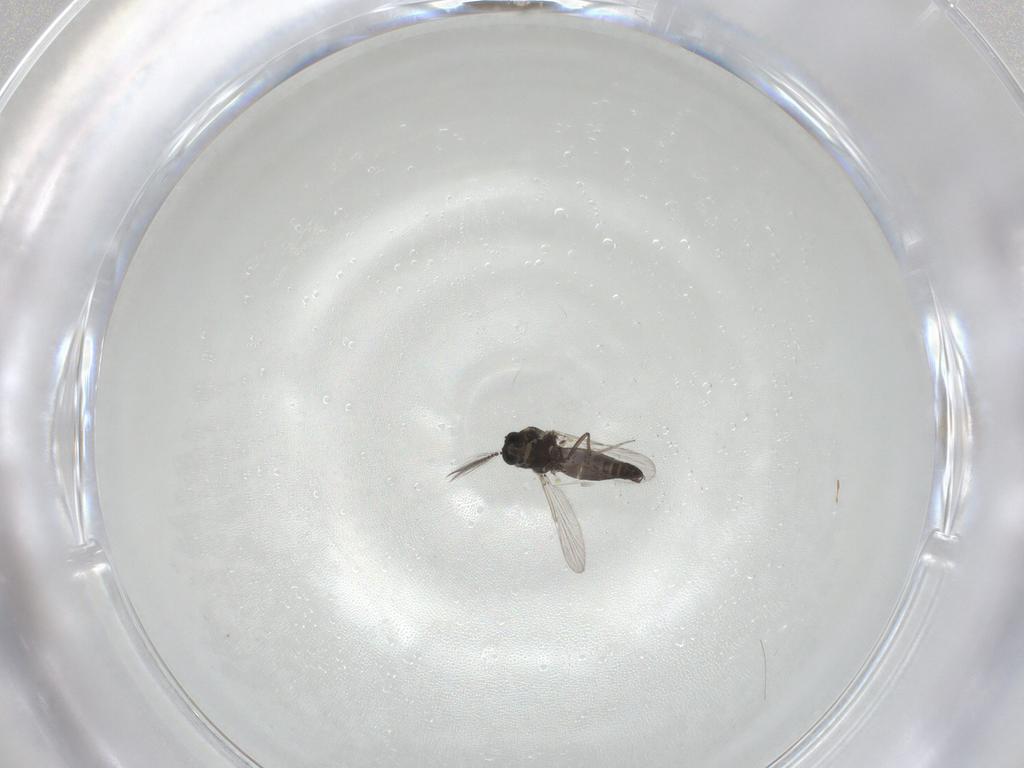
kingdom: Animalia
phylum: Arthropoda
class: Insecta
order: Diptera
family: Ceratopogonidae
